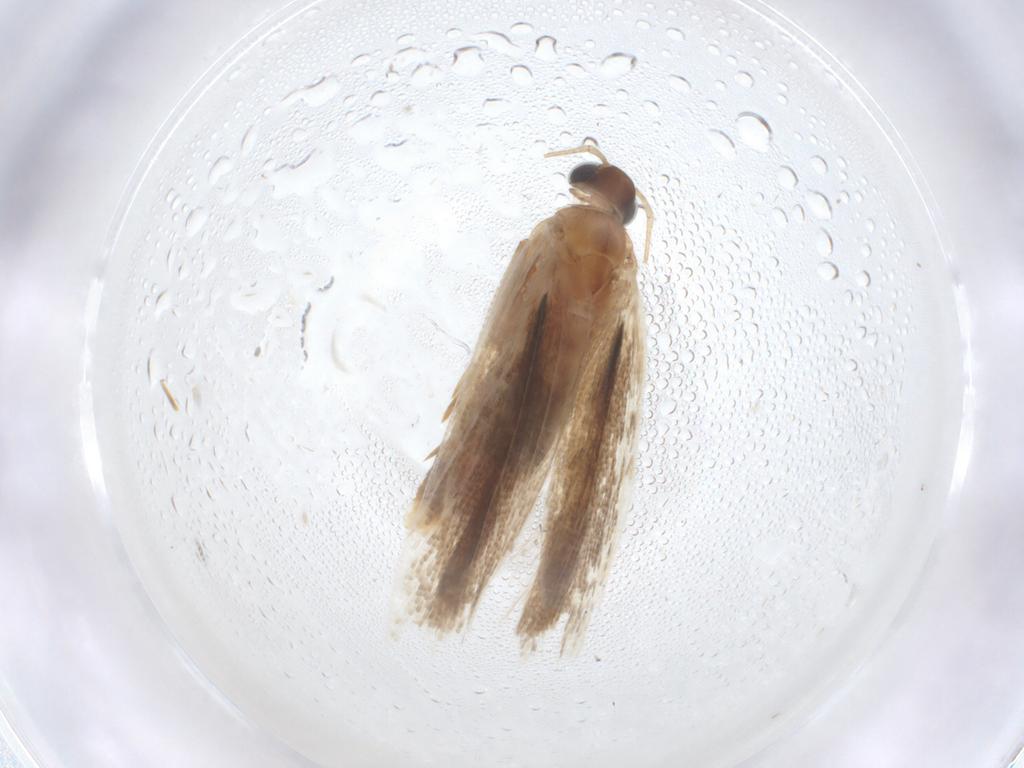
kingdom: Animalia
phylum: Arthropoda
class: Insecta
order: Lepidoptera
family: Gelechiidae
